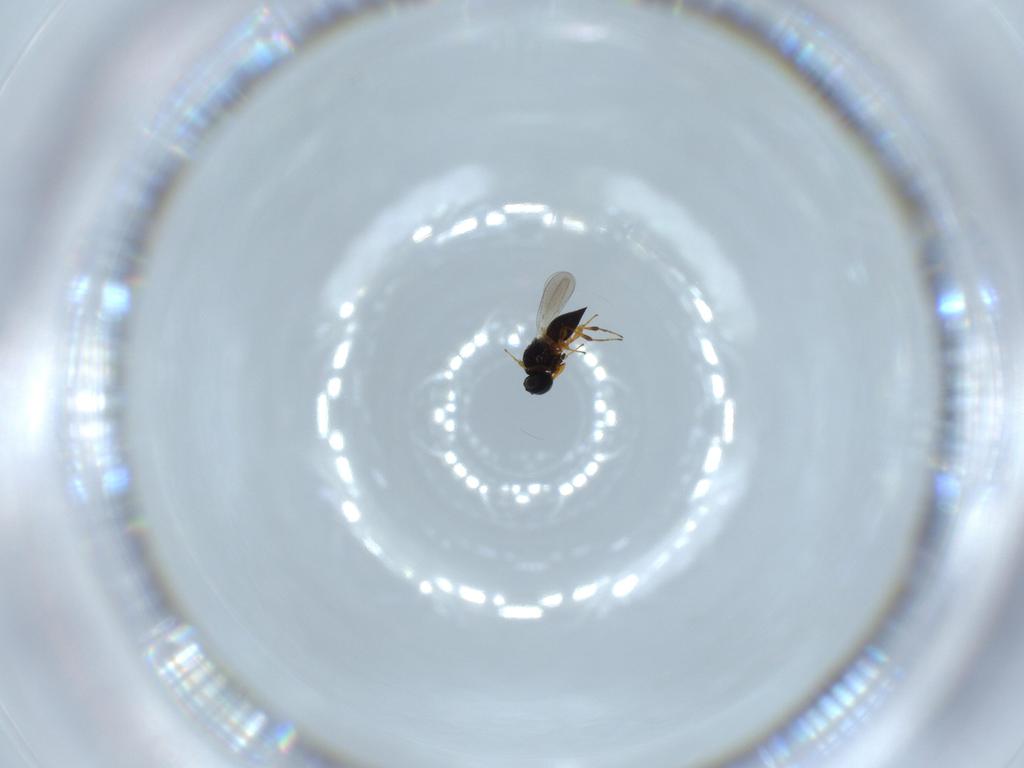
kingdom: Animalia
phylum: Arthropoda
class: Insecta
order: Hymenoptera
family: Platygastridae
